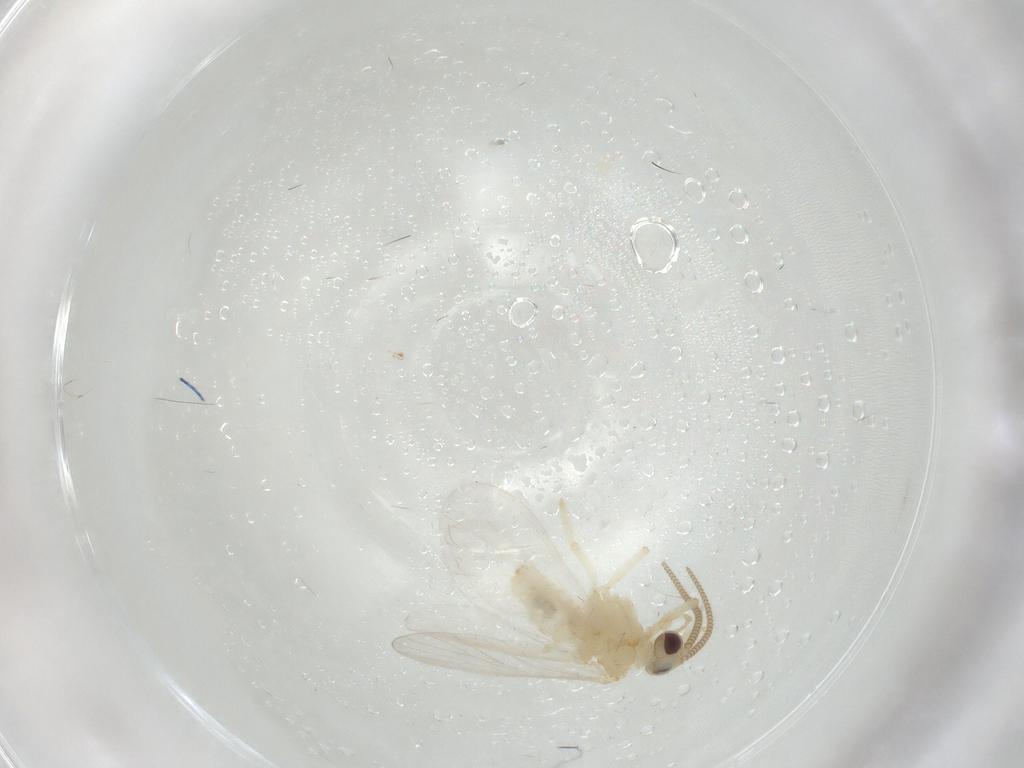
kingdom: Animalia
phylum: Arthropoda
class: Insecta
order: Neuroptera
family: Coniopterygidae
